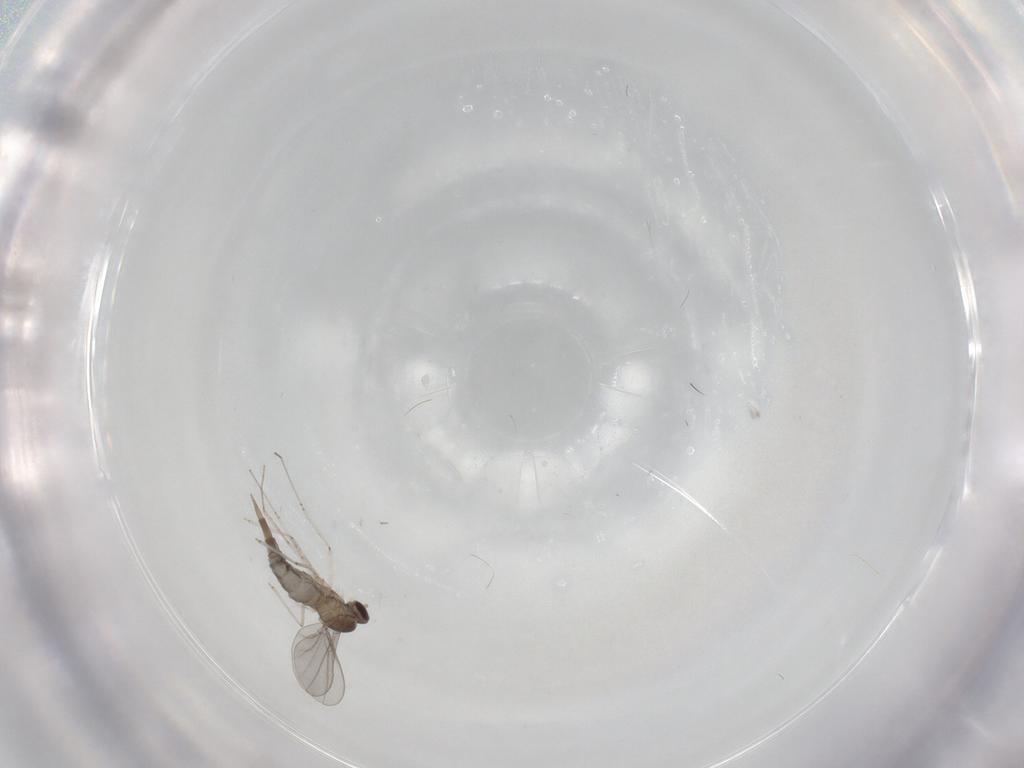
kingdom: Animalia
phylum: Arthropoda
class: Insecta
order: Diptera
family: Cecidomyiidae
